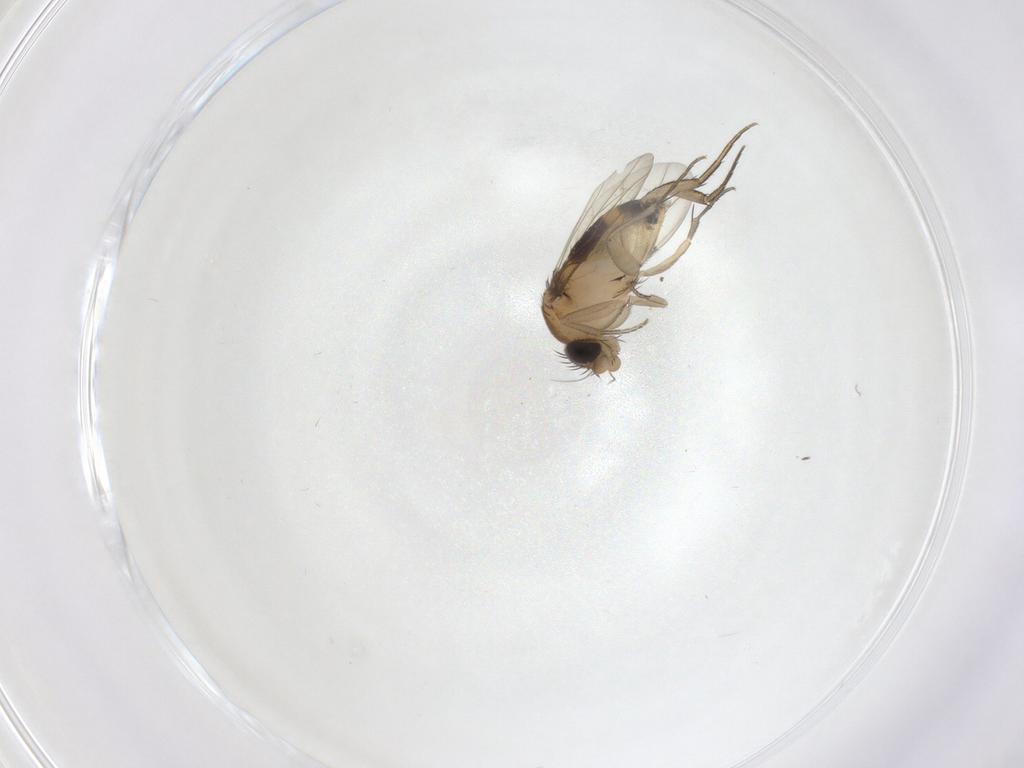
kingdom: Animalia
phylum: Arthropoda
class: Insecta
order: Diptera
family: Phoridae
